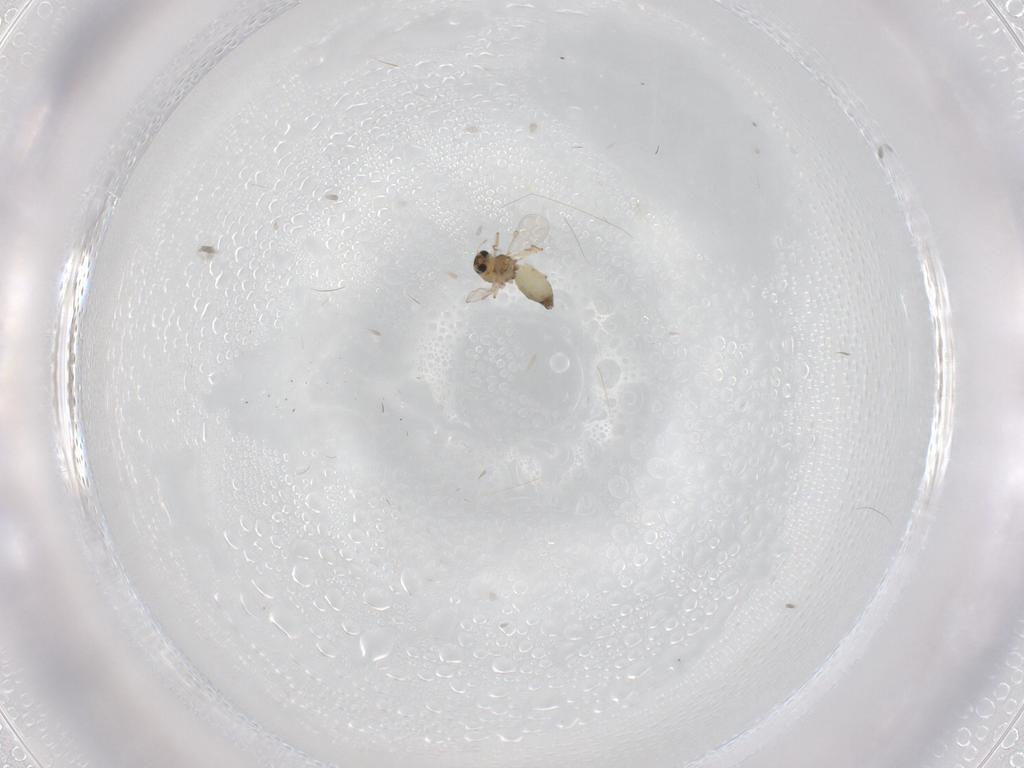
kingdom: Animalia
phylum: Arthropoda
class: Insecta
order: Diptera
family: Chironomidae
